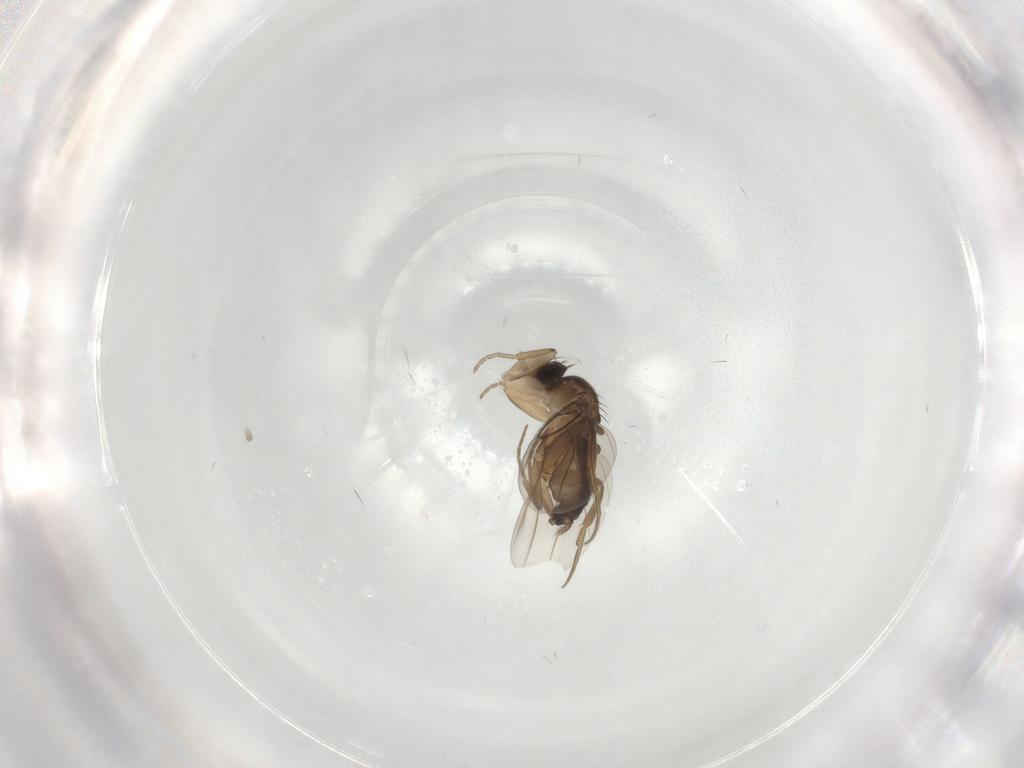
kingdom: Animalia
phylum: Arthropoda
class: Insecta
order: Diptera
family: Phoridae
